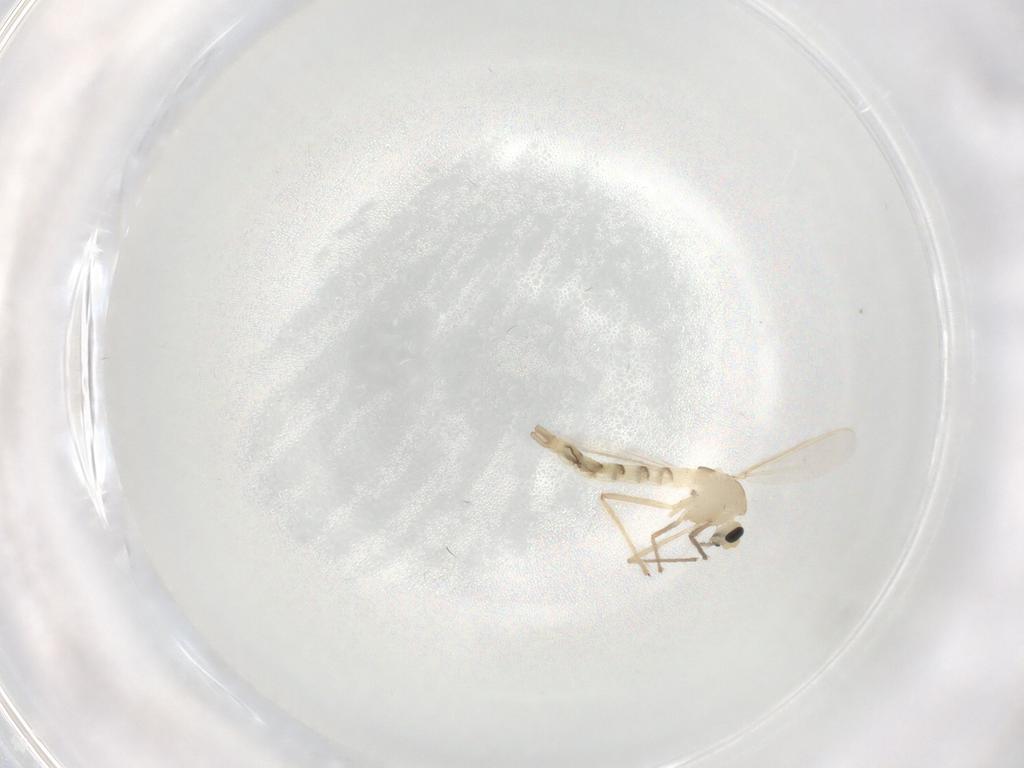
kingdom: Animalia
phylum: Arthropoda
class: Insecta
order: Diptera
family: Chironomidae
